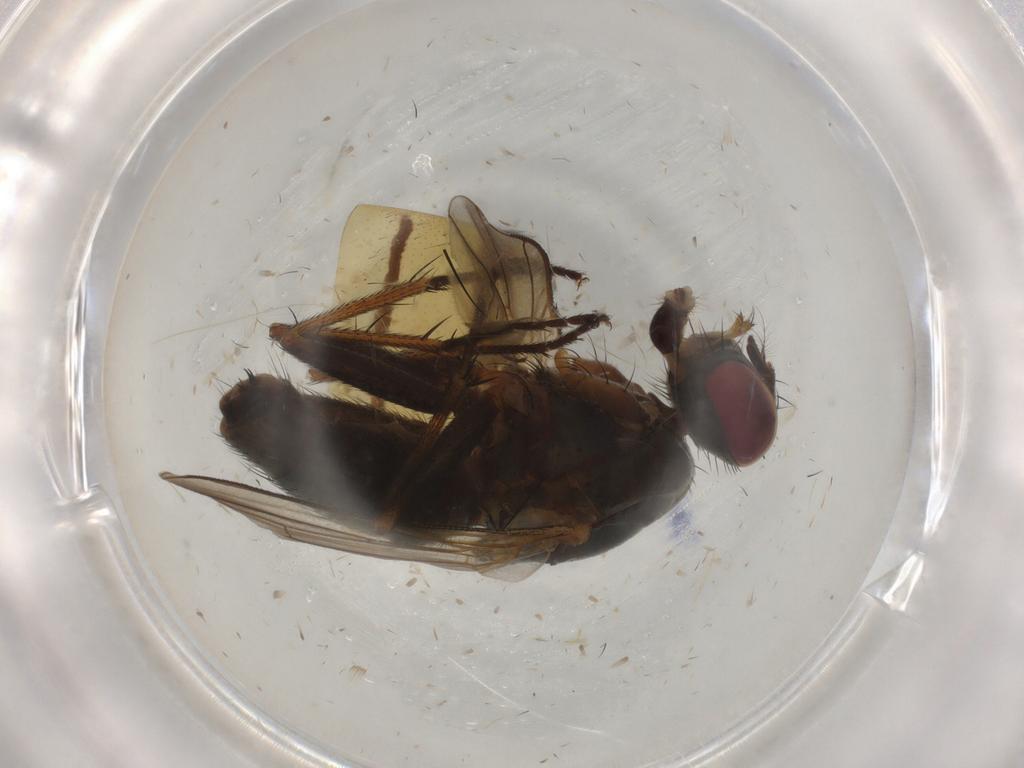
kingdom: Animalia
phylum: Arthropoda
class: Insecta
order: Diptera
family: Muscidae
